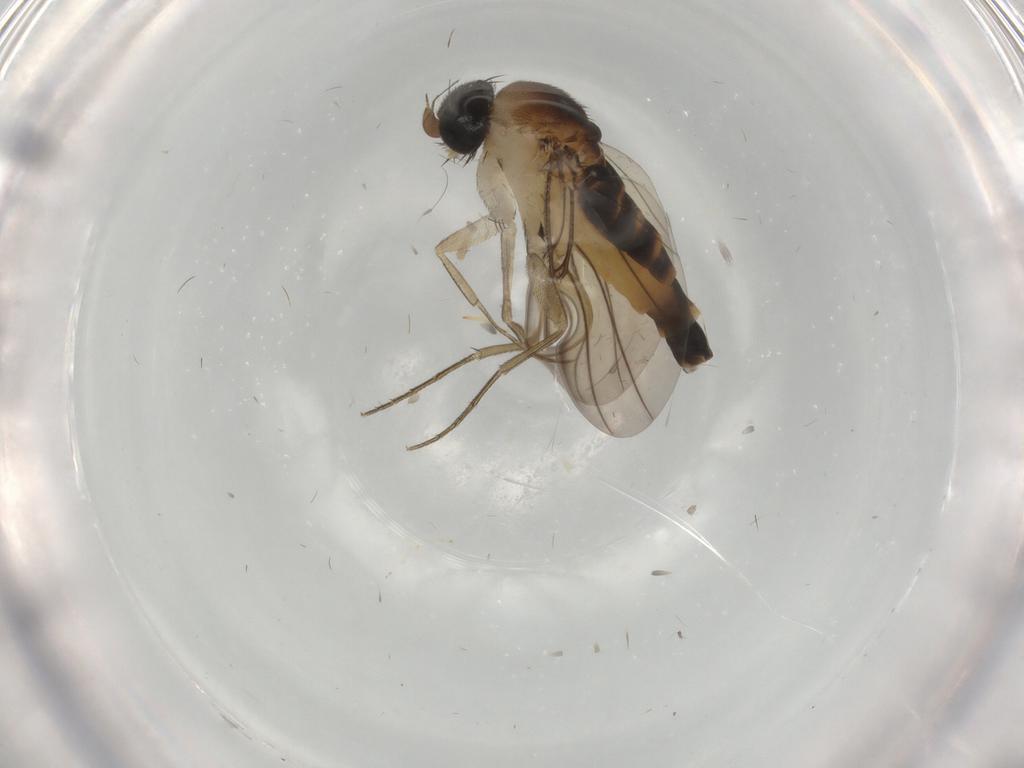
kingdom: Animalia
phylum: Arthropoda
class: Insecta
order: Diptera
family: Phoridae
